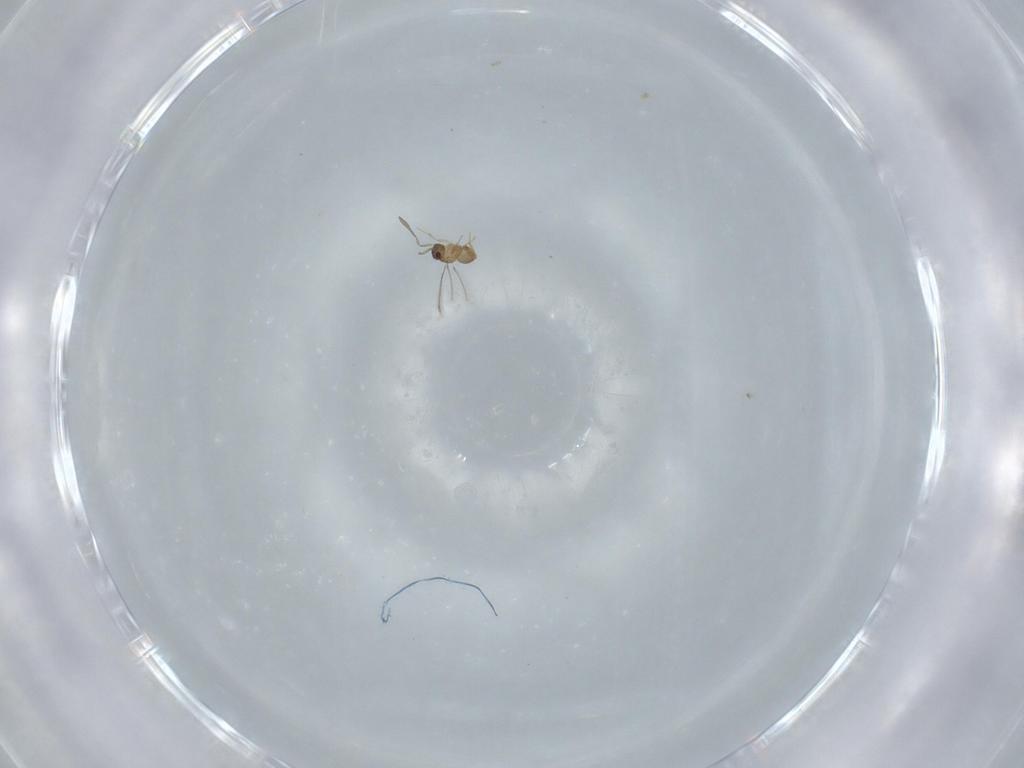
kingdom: Animalia
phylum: Arthropoda
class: Insecta
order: Hymenoptera
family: Mymaridae
